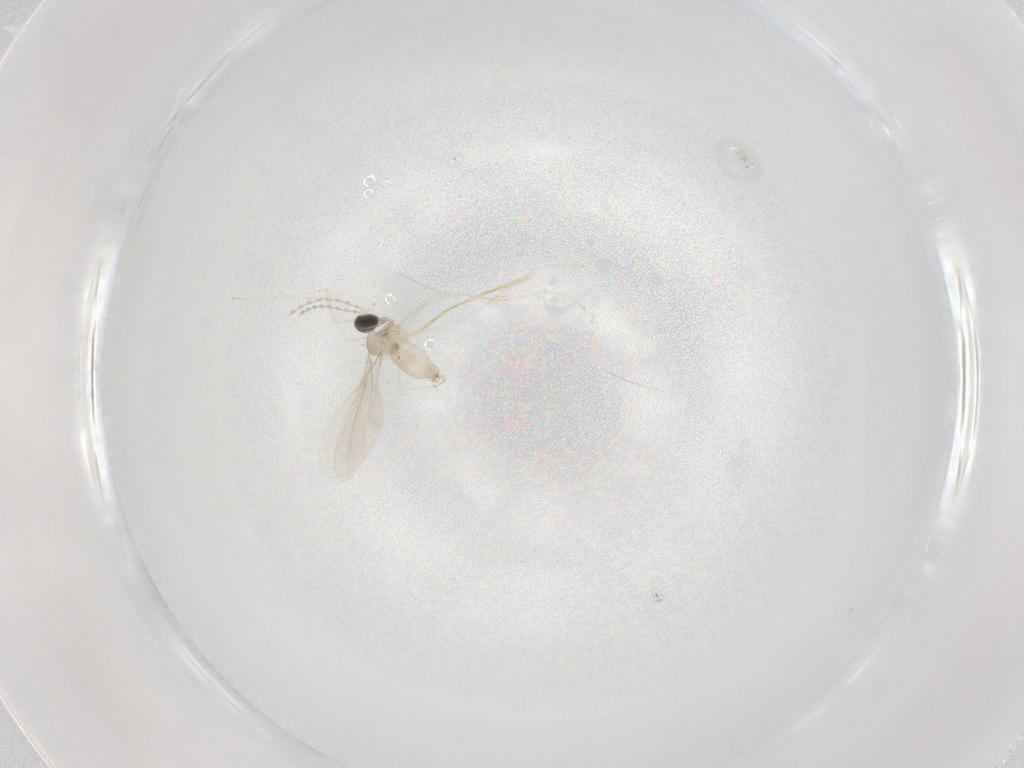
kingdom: Animalia
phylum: Arthropoda
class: Insecta
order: Diptera
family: Cecidomyiidae
